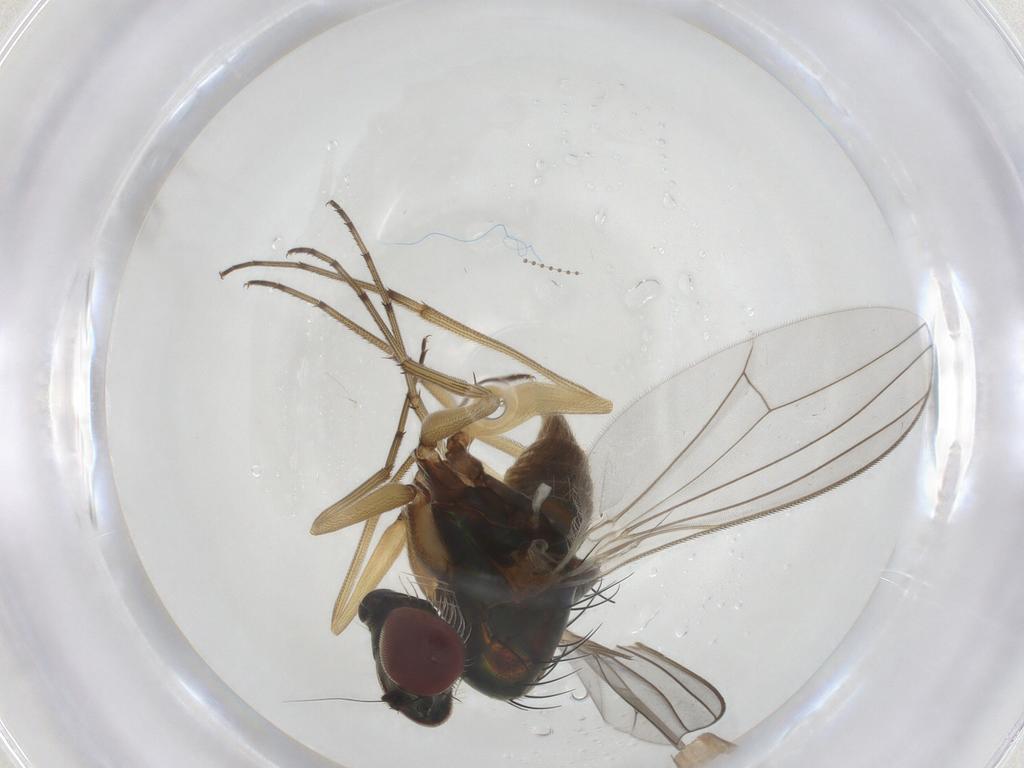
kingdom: Animalia
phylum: Arthropoda
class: Insecta
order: Diptera
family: Psychodidae
